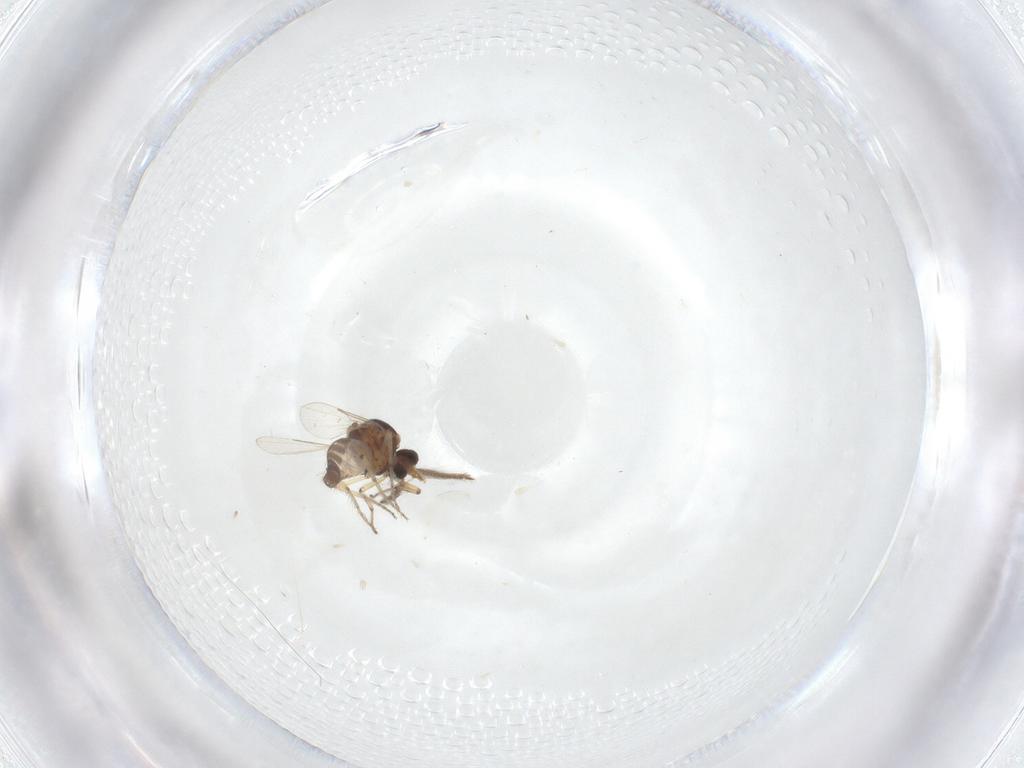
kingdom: Animalia
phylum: Arthropoda
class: Insecta
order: Diptera
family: Ceratopogonidae
